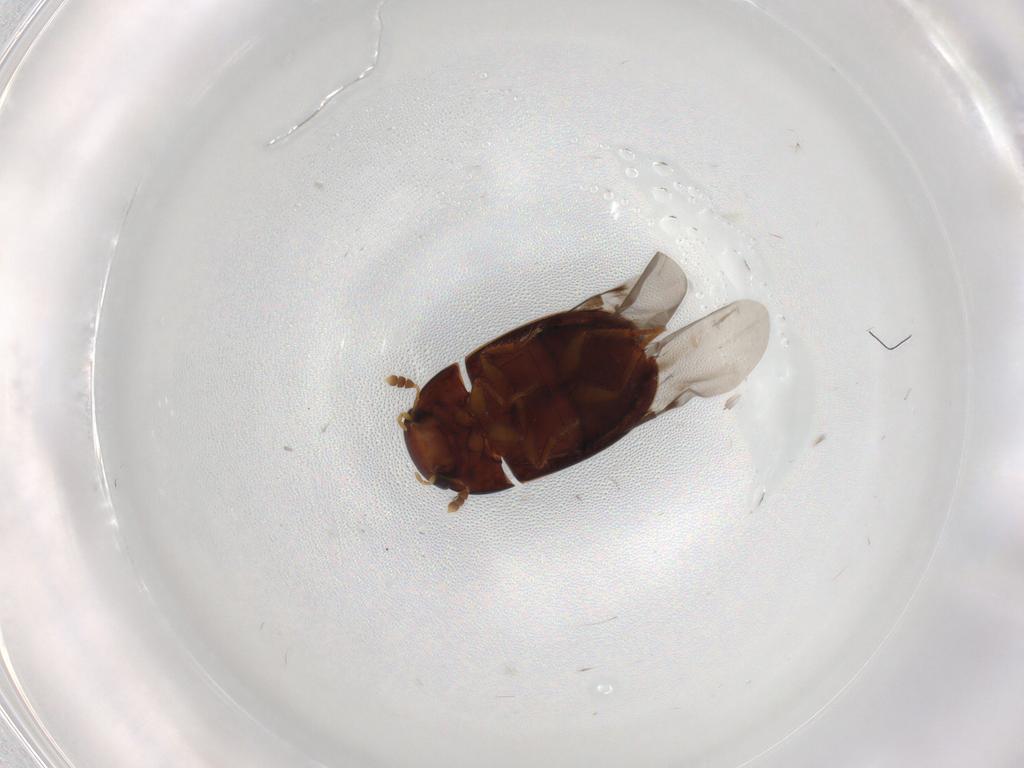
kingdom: Animalia
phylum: Arthropoda
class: Insecta
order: Coleoptera
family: Hydrophilidae
